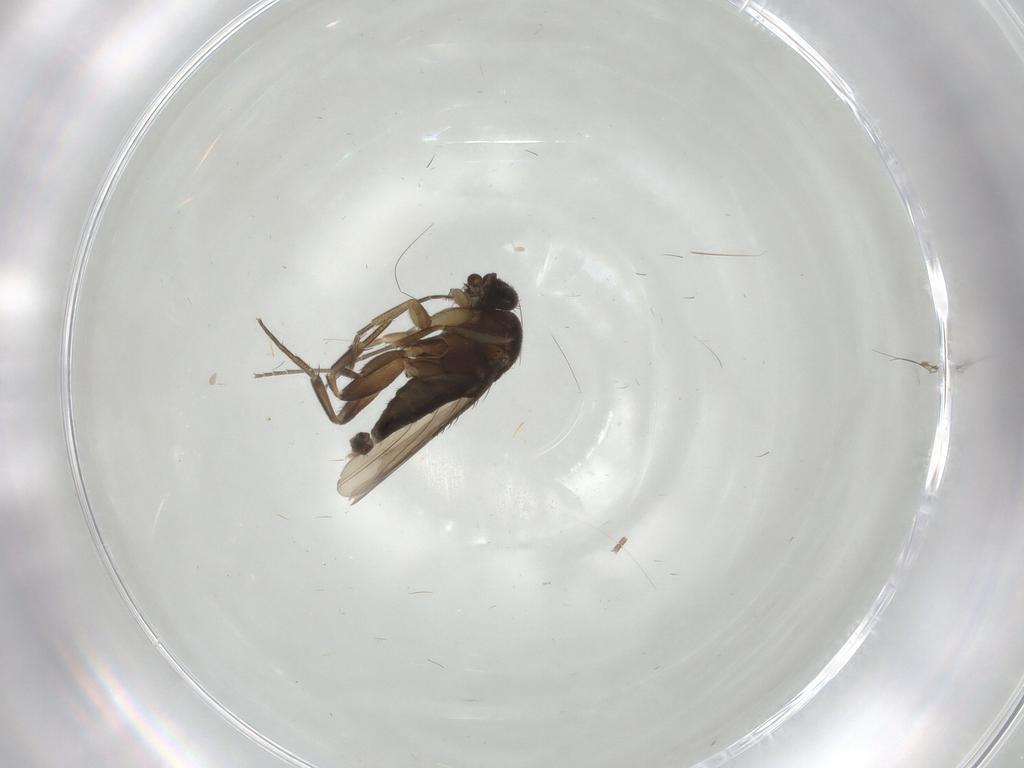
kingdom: Animalia
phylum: Arthropoda
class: Insecta
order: Diptera
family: Phoridae
